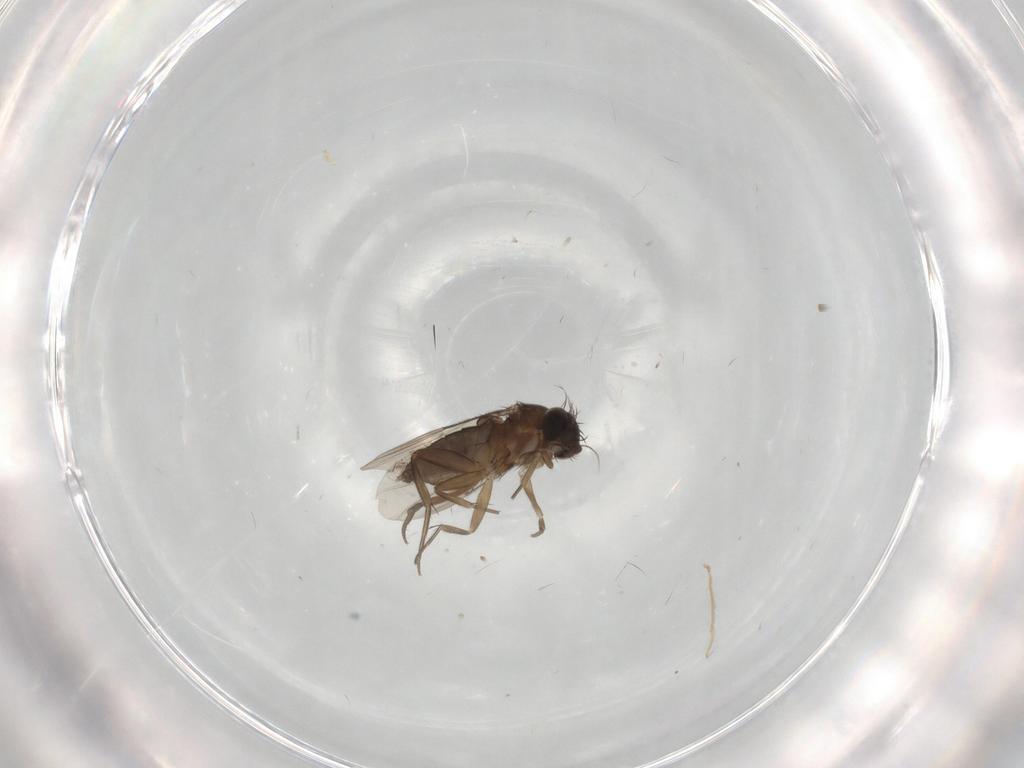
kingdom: Animalia
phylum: Arthropoda
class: Insecta
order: Diptera
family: Phoridae
